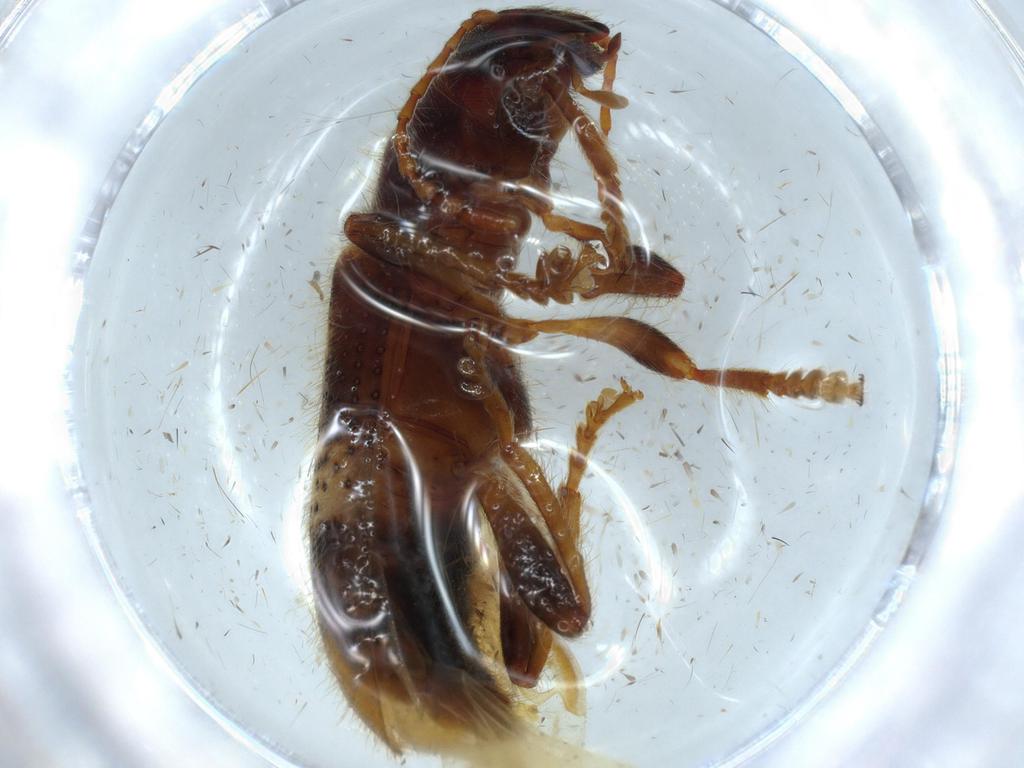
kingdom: Animalia
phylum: Arthropoda
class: Insecta
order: Coleoptera
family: Cleridae
